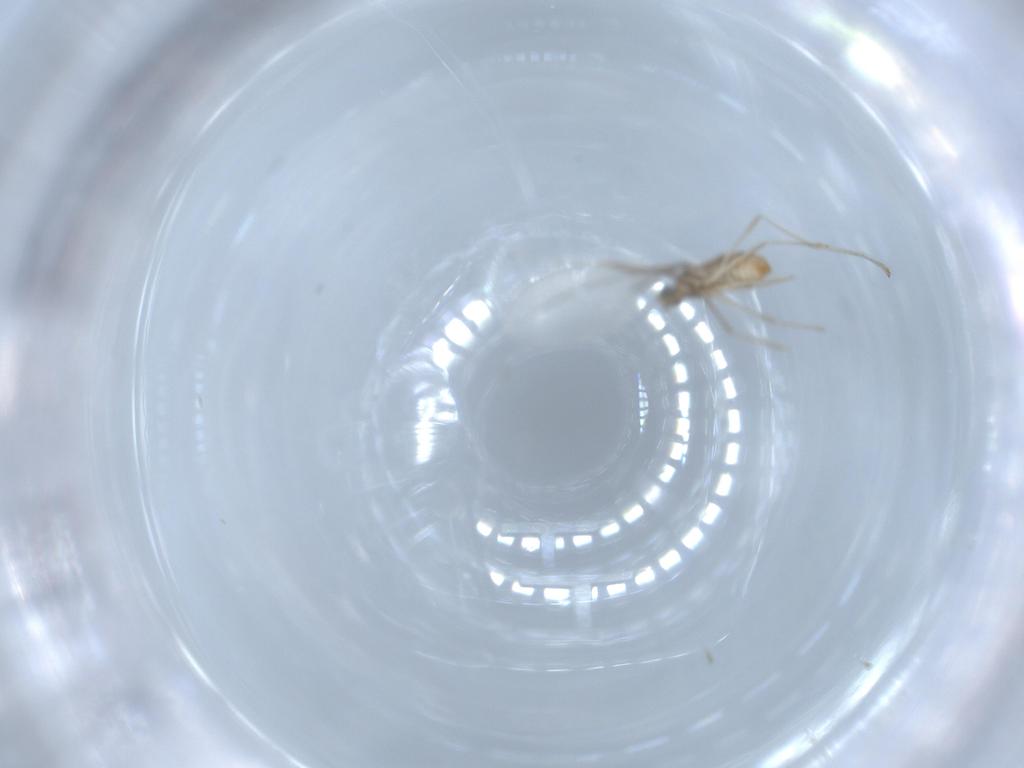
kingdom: Animalia
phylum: Arthropoda
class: Insecta
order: Diptera
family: Cecidomyiidae
